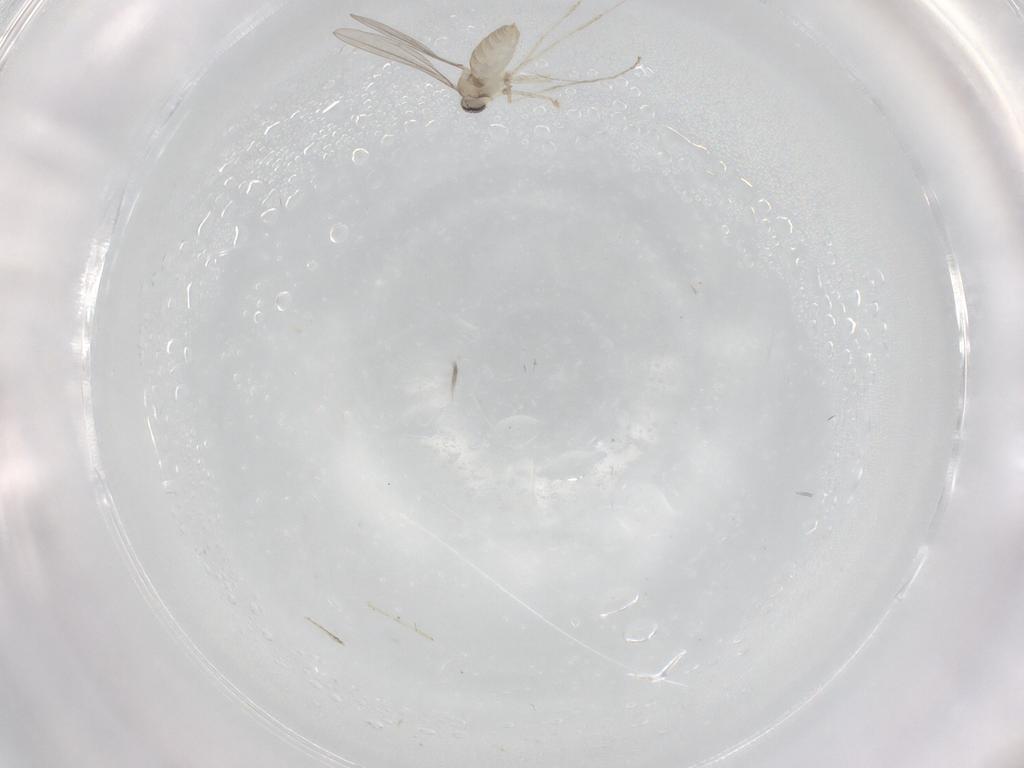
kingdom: Animalia
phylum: Arthropoda
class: Insecta
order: Diptera
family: Cecidomyiidae
